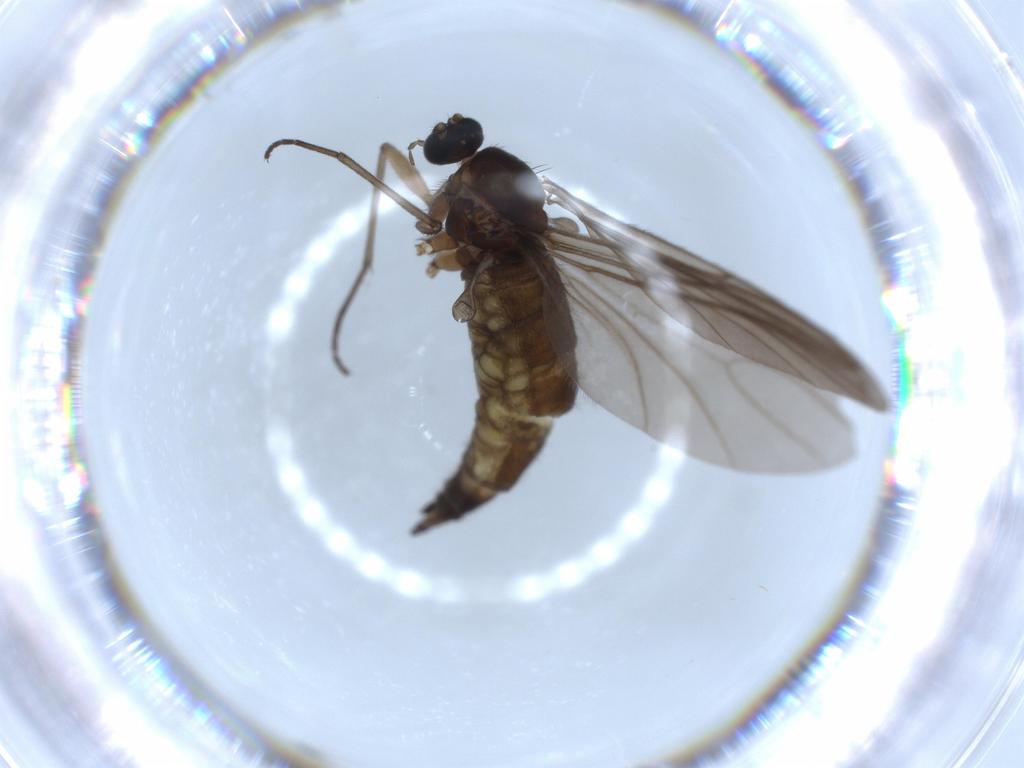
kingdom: Animalia
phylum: Arthropoda
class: Insecta
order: Diptera
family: Sciaridae
